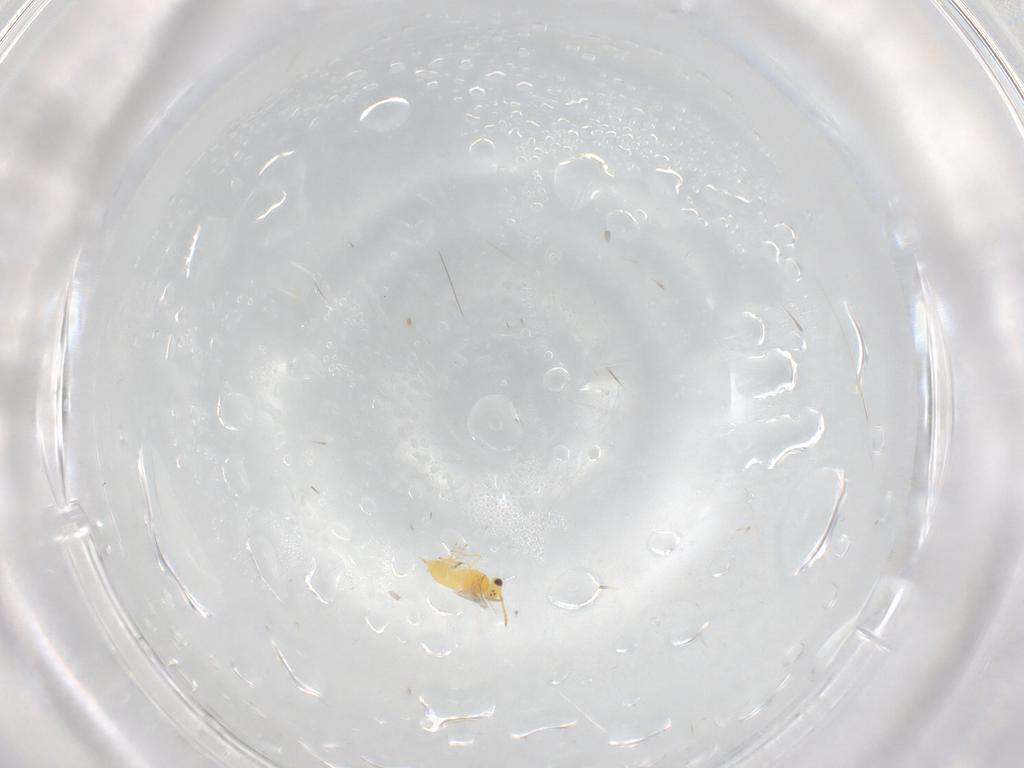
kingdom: Animalia
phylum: Arthropoda
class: Insecta
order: Hymenoptera
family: Aphelinidae
